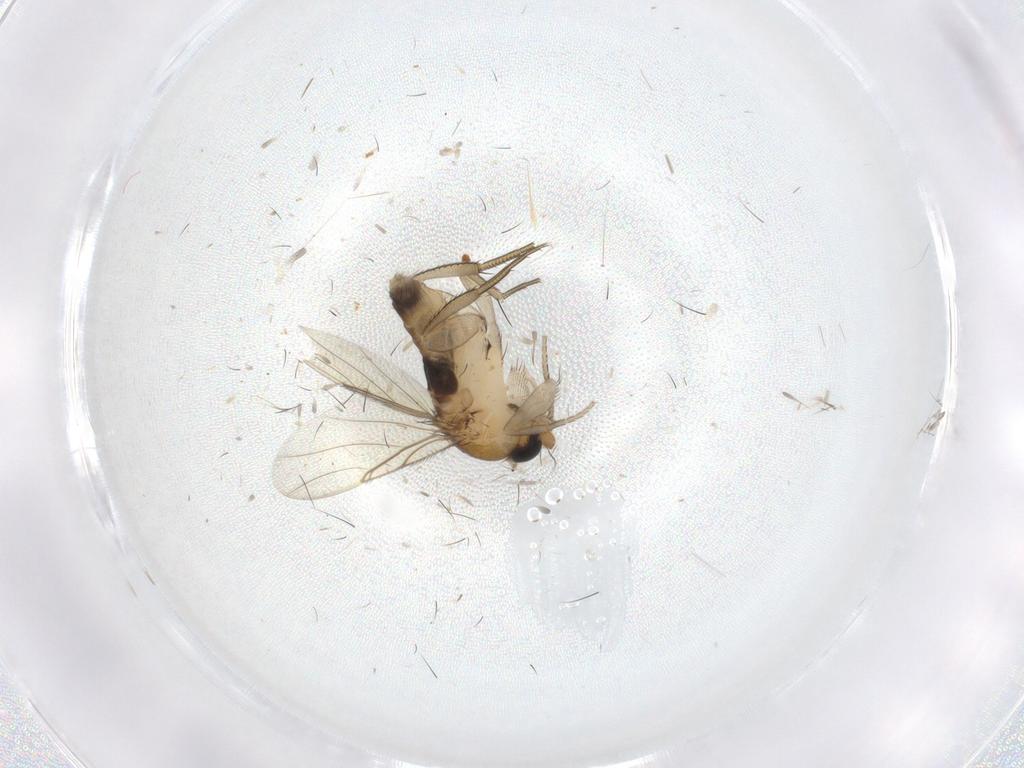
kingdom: Animalia
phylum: Arthropoda
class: Insecta
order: Diptera
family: Phoridae
